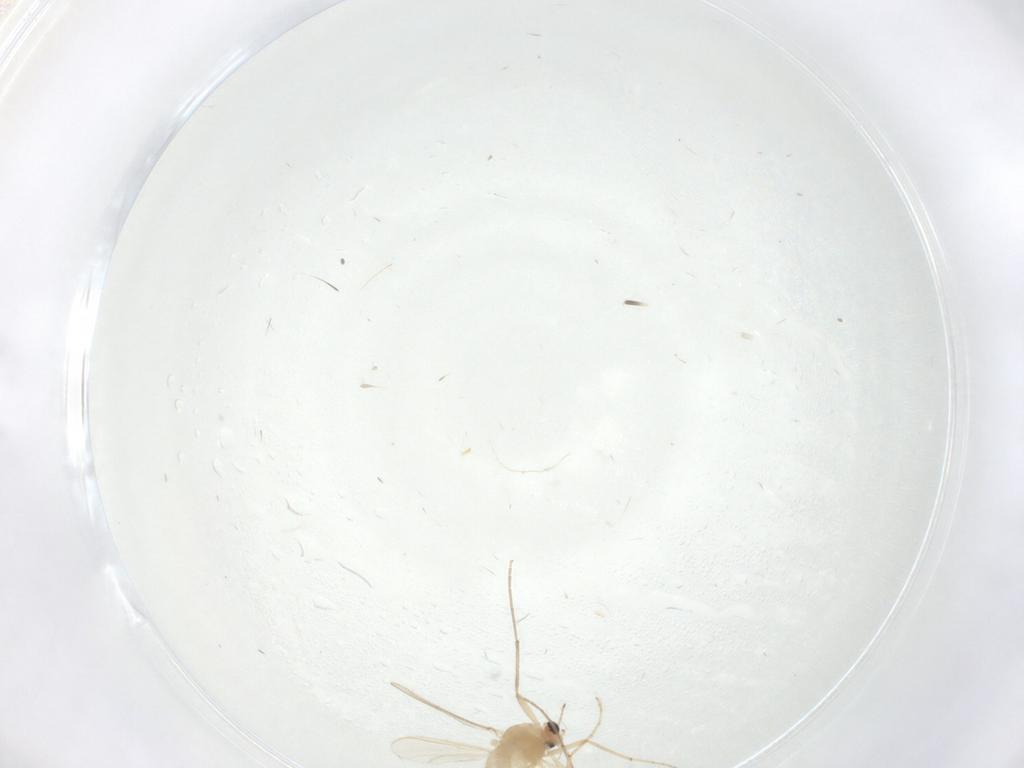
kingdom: Animalia
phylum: Arthropoda
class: Insecta
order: Diptera
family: Chironomidae
